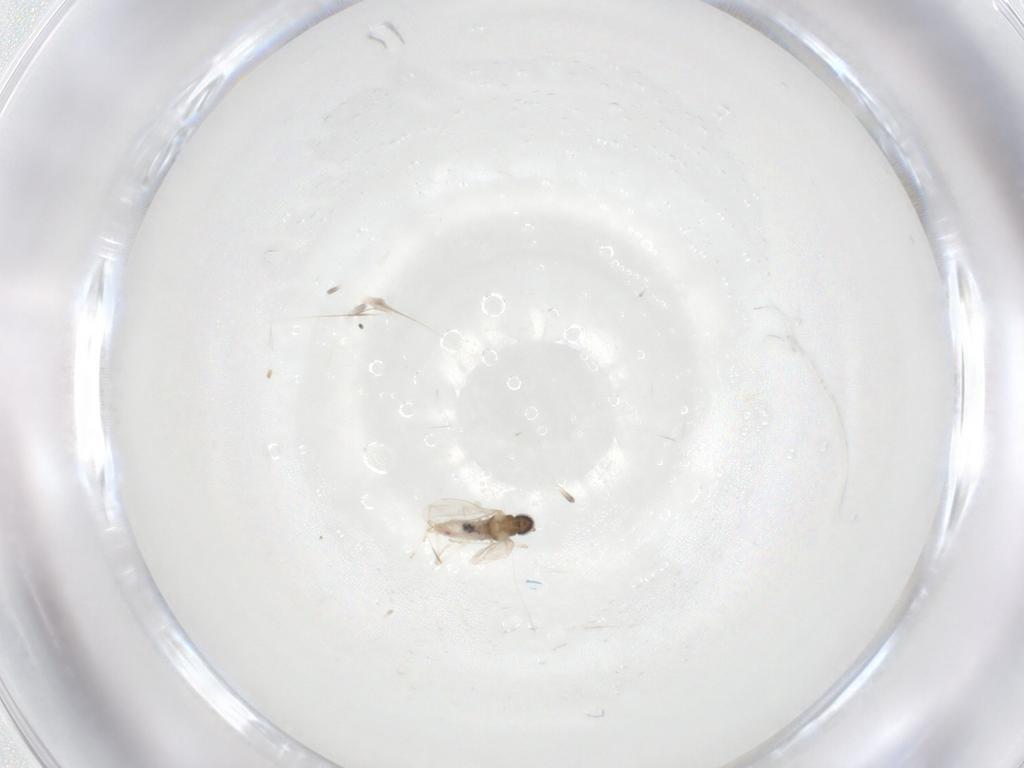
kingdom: Animalia
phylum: Arthropoda
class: Insecta
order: Diptera
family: Cecidomyiidae
